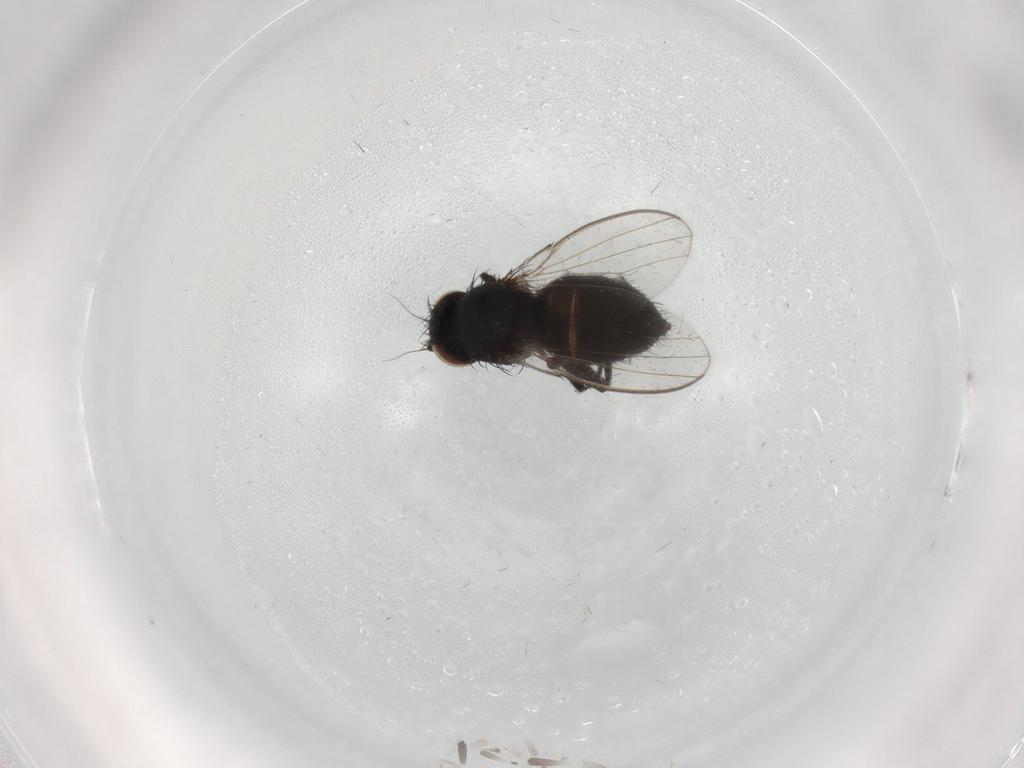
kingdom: Animalia
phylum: Arthropoda
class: Insecta
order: Diptera
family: Milichiidae
